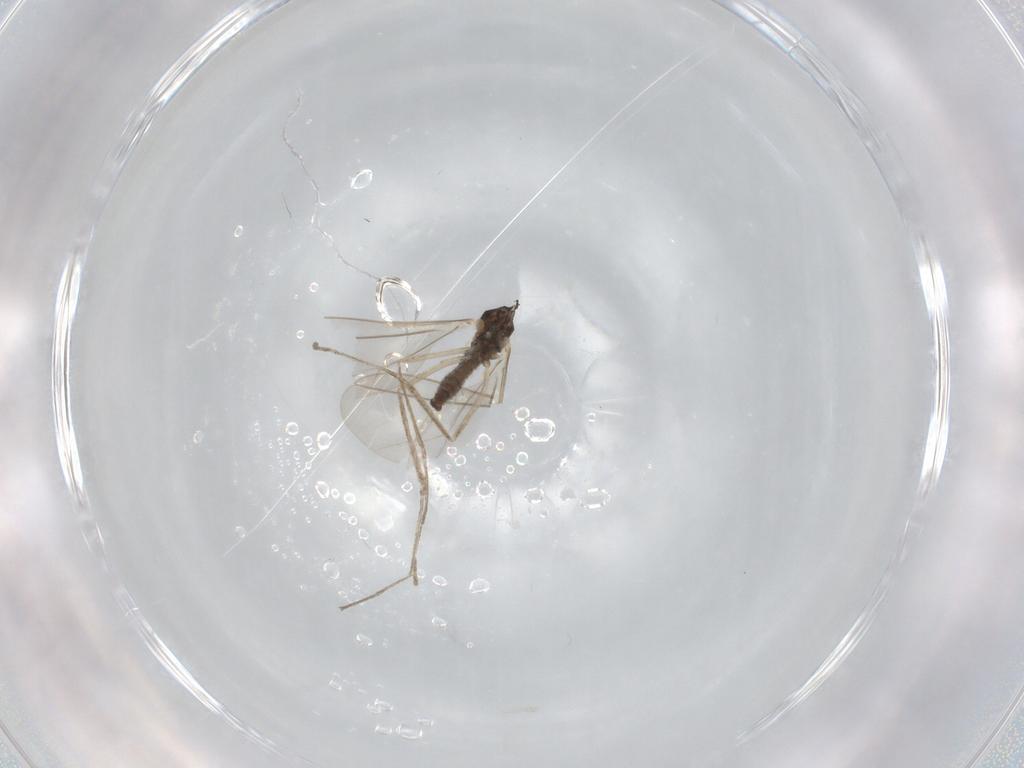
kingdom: Animalia
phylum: Arthropoda
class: Insecta
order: Diptera
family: Cecidomyiidae
